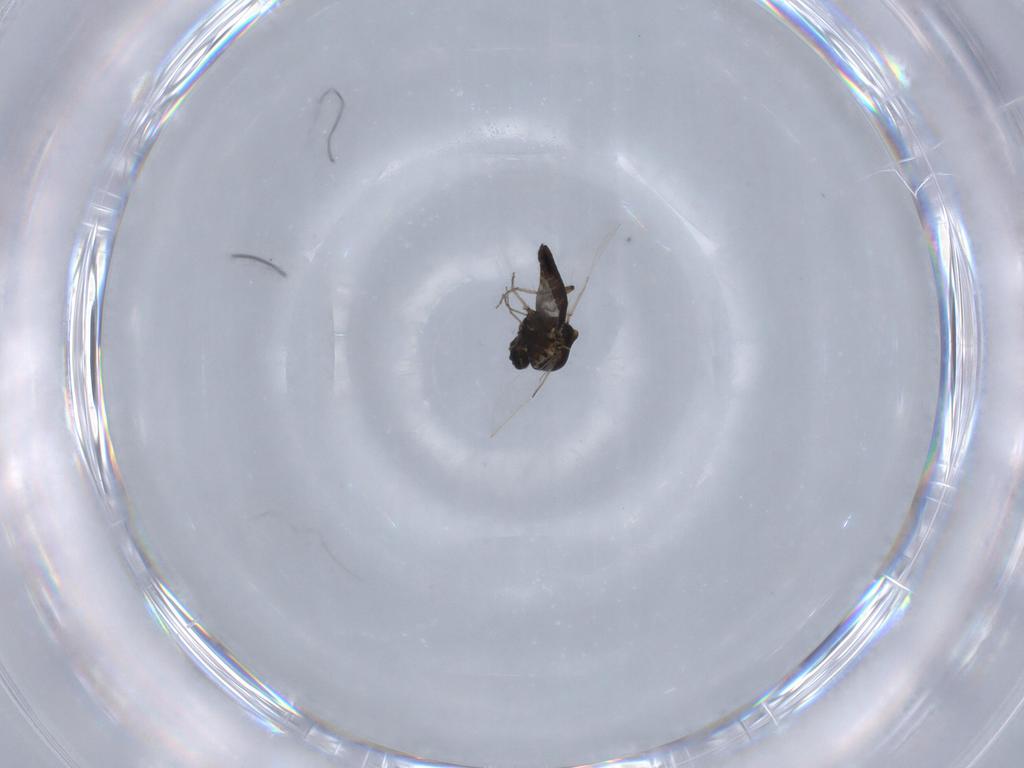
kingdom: Animalia
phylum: Arthropoda
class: Insecta
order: Diptera
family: Ceratopogonidae
